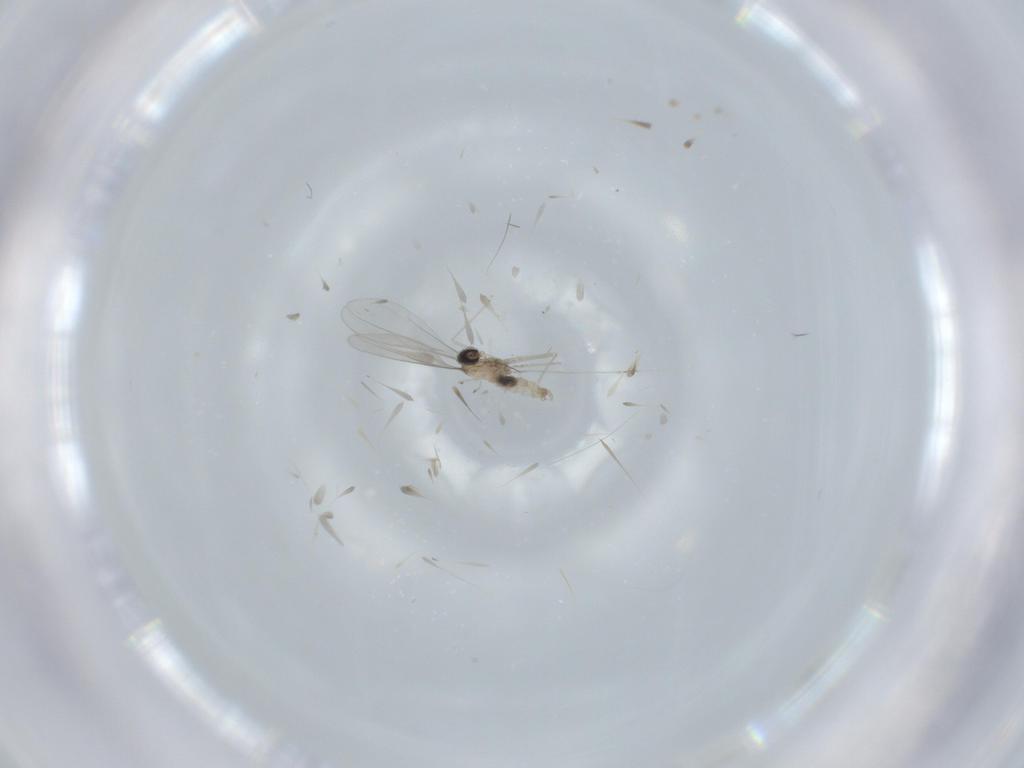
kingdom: Animalia
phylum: Arthropoda
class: Insecta
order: Diptera
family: Cecidomyiidae
